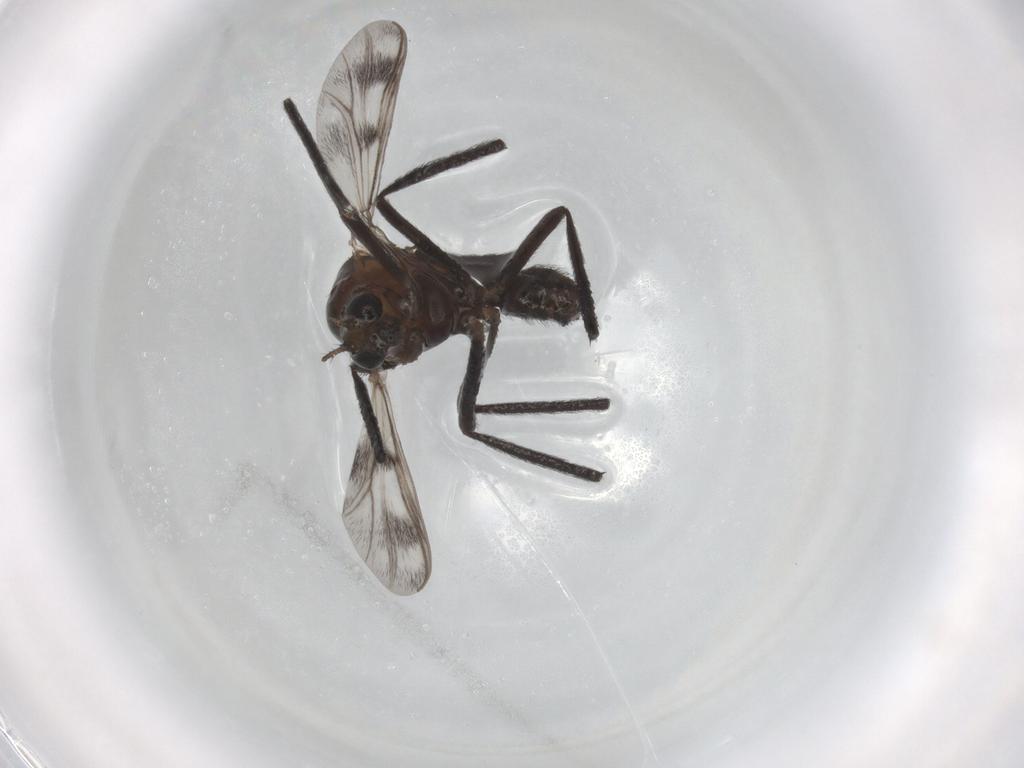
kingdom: Animalia
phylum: Arthropoda
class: Insecta
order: Diptera
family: Chironomidae
